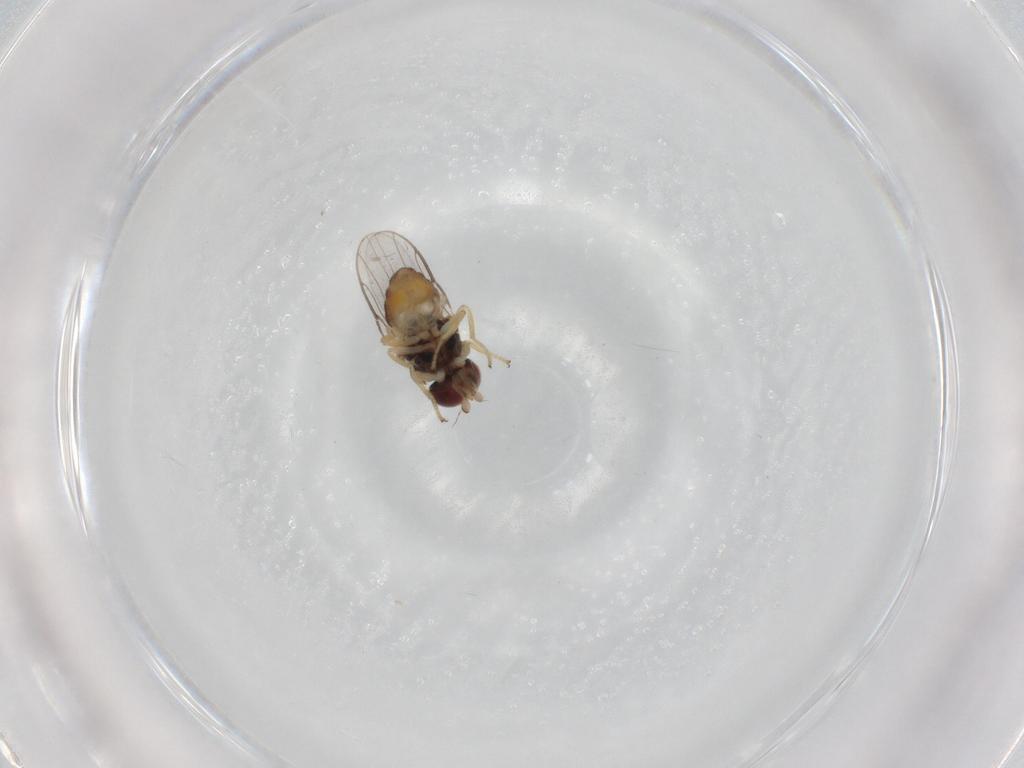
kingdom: Animalia
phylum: Arthropoda
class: Insecta
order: Diptera
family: Chloropidae
